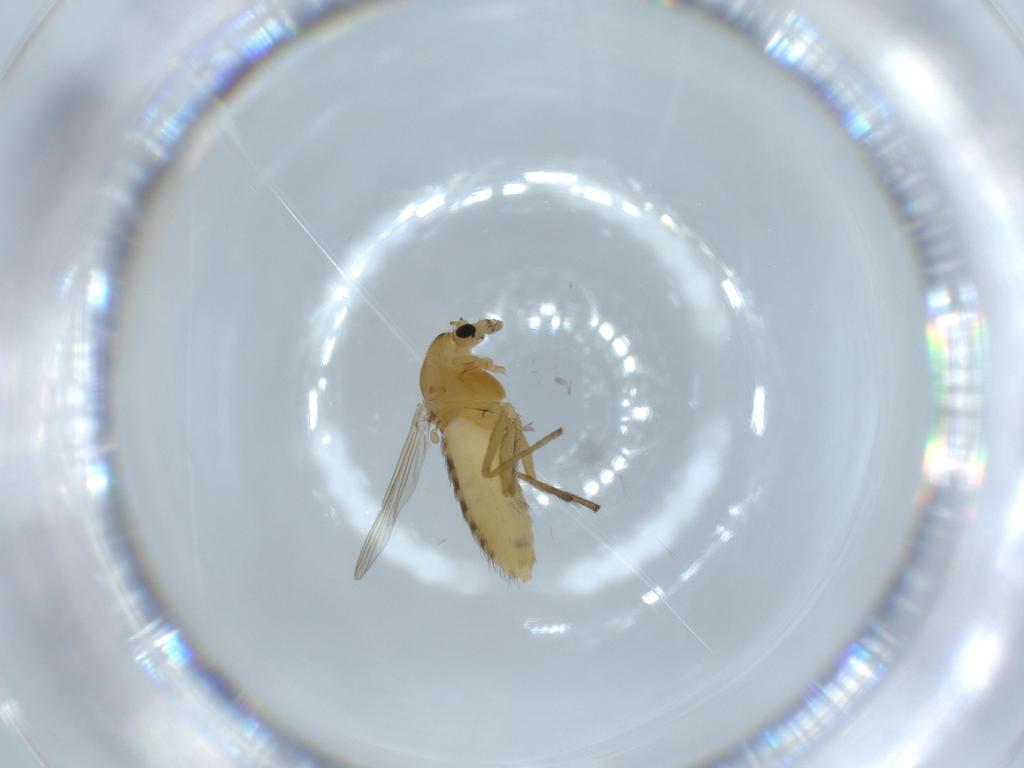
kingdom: Animalia
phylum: Arthropoda
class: Insecta
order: Diptera
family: Chironomidae
